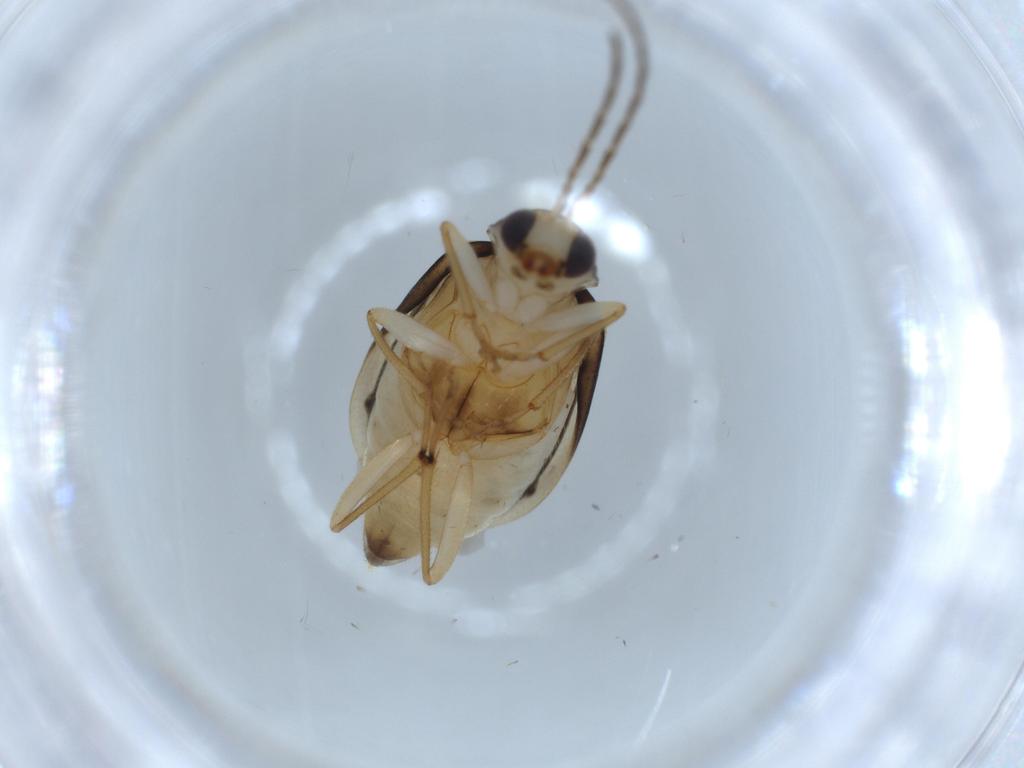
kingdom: Animalia
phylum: Arthropoda
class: Insecta
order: Coleoptera
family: Chrysomelidae
